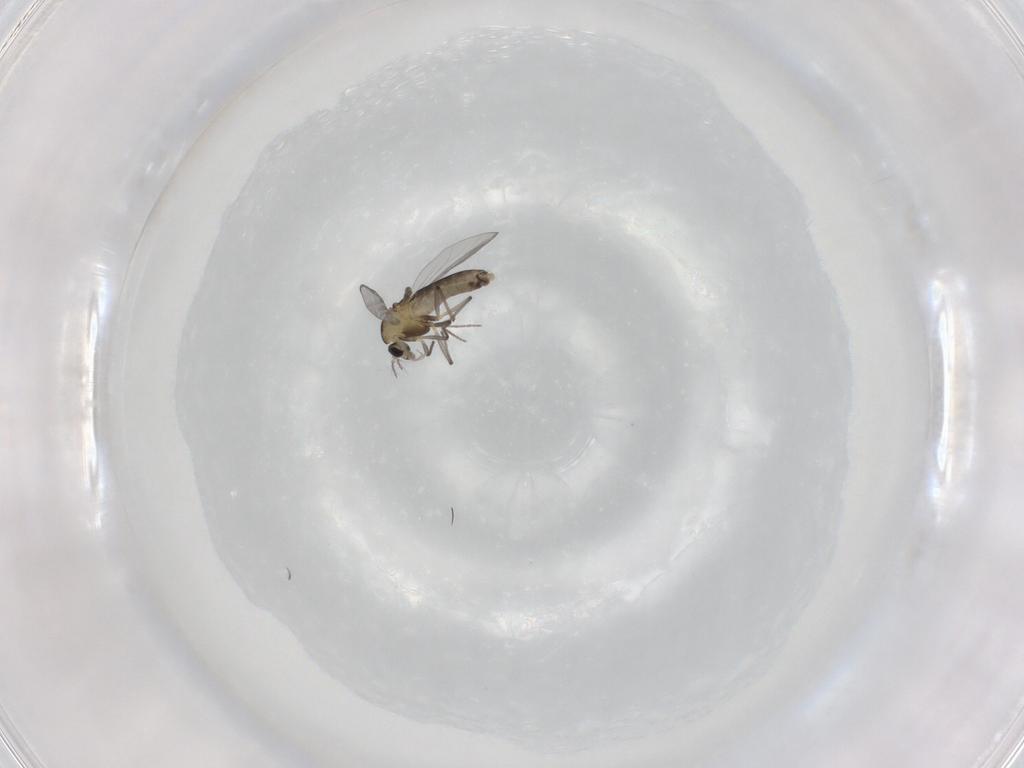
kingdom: Animalia
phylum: Arthropoda
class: Insecta
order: Diptera
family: Chironomidae
